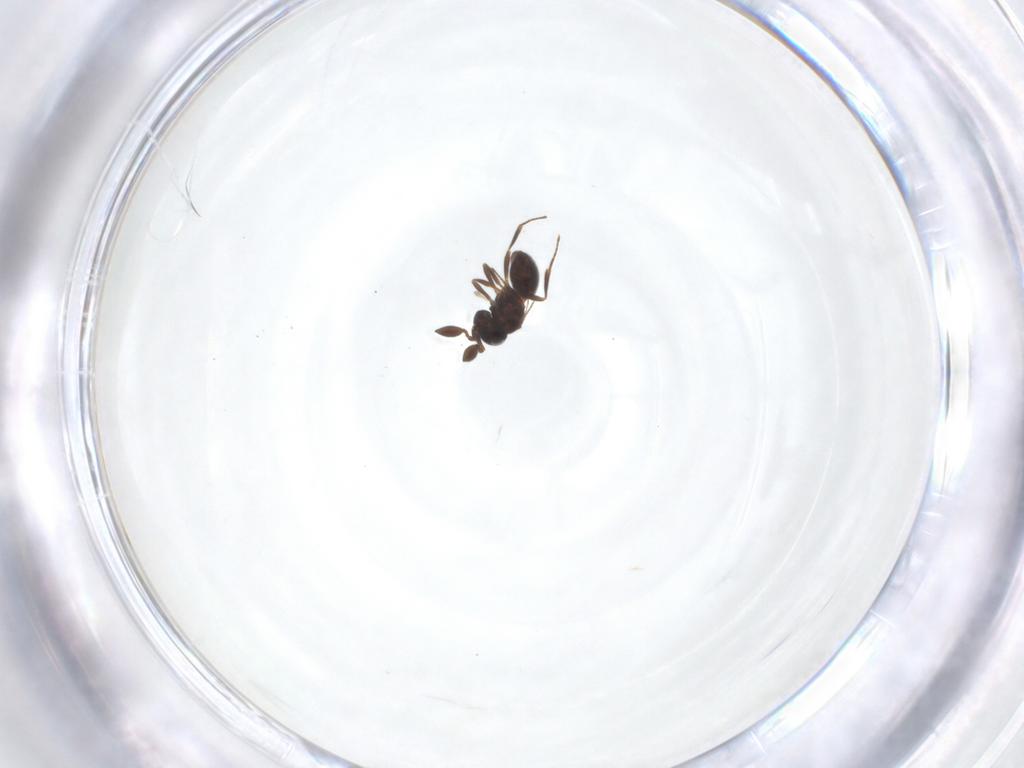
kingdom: Animalia
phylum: Arthropoda
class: Insecta
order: Hymenoptera
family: Scelionidae
